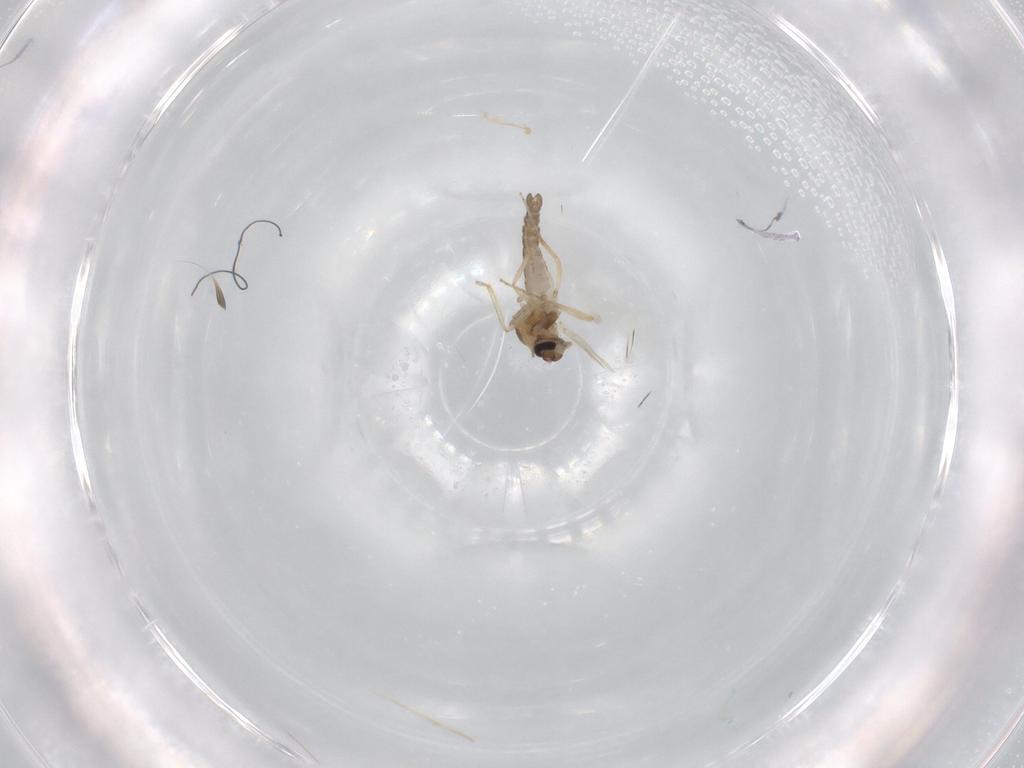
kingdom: Animalia
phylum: Arthropoda
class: Insecta
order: Diptera
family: Ceratopogonidae
